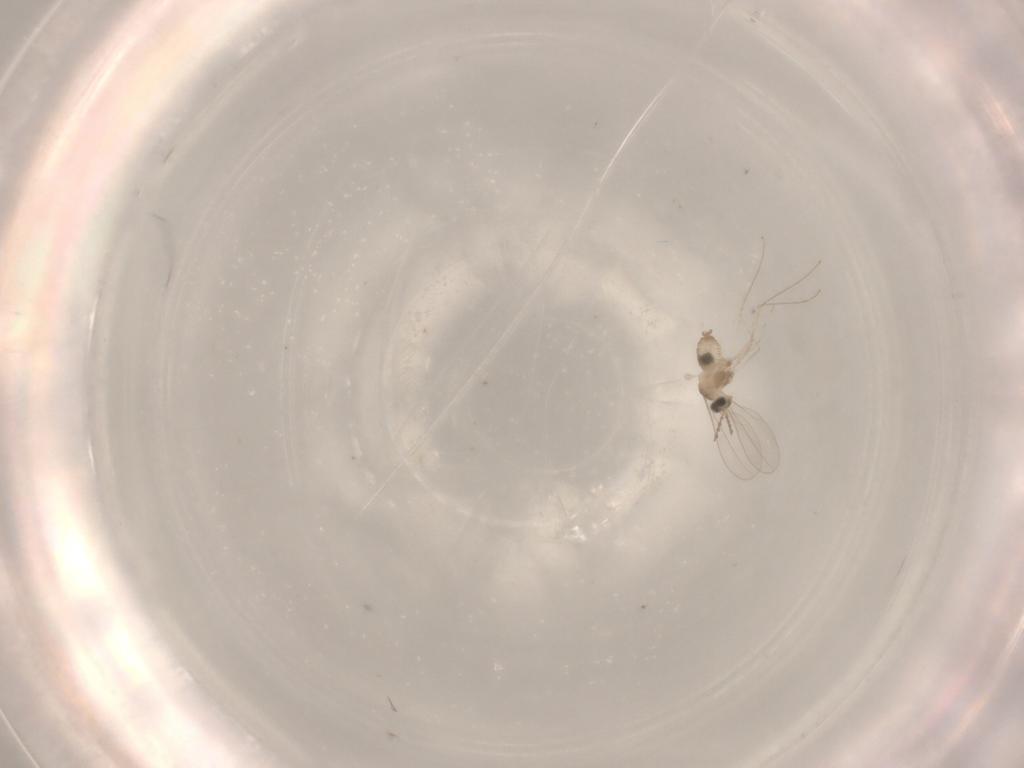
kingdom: Animalia
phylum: Arthropoda
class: Insecta
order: Diptera
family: Cecidomyiidae
